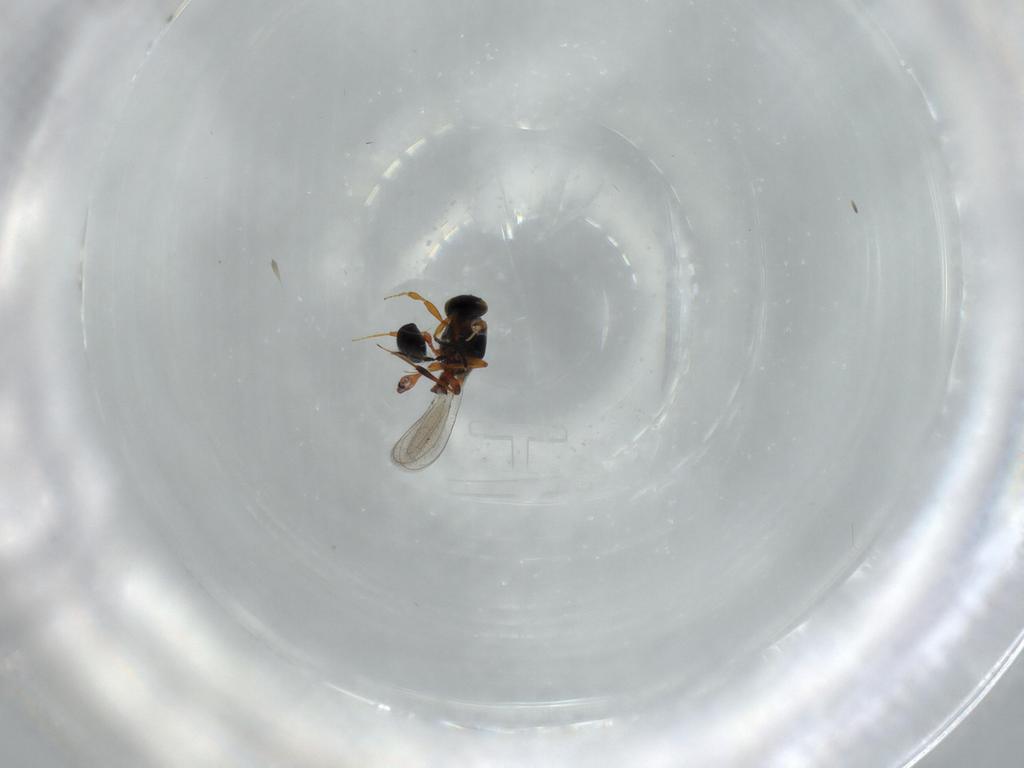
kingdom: Animalia
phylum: Arthropoda
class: Insecta
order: Hymenoptera
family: Platygastridae
